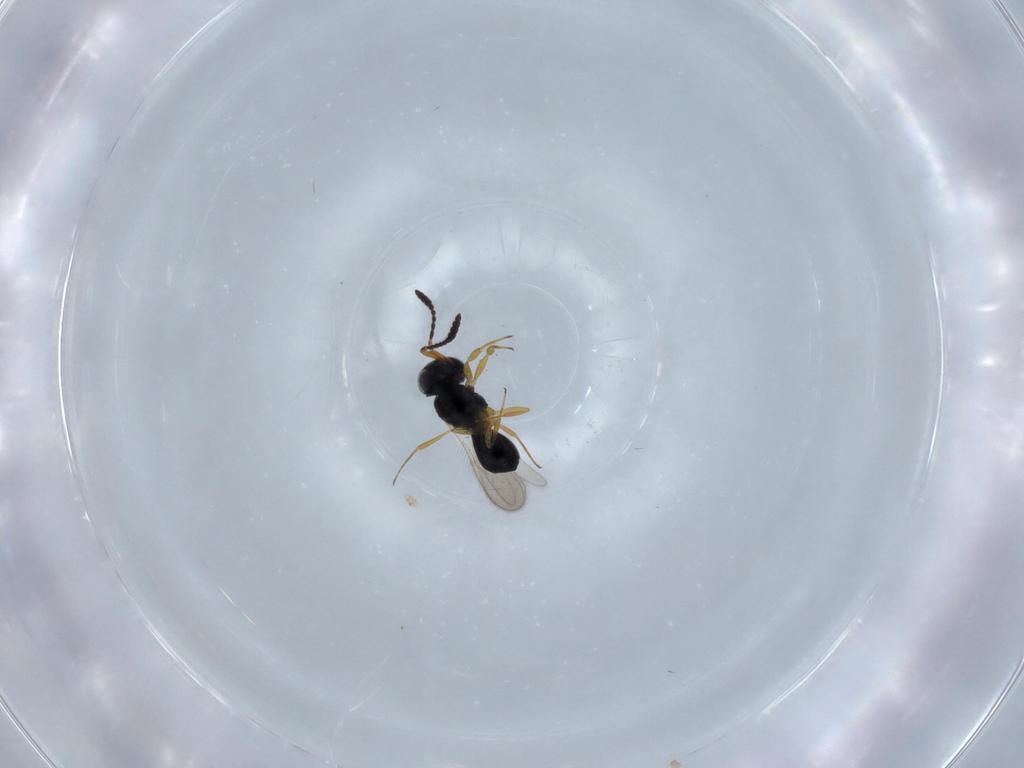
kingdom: Animalia
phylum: Arthropoda
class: Insecta
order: Hymenoptera
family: Scelionidae
